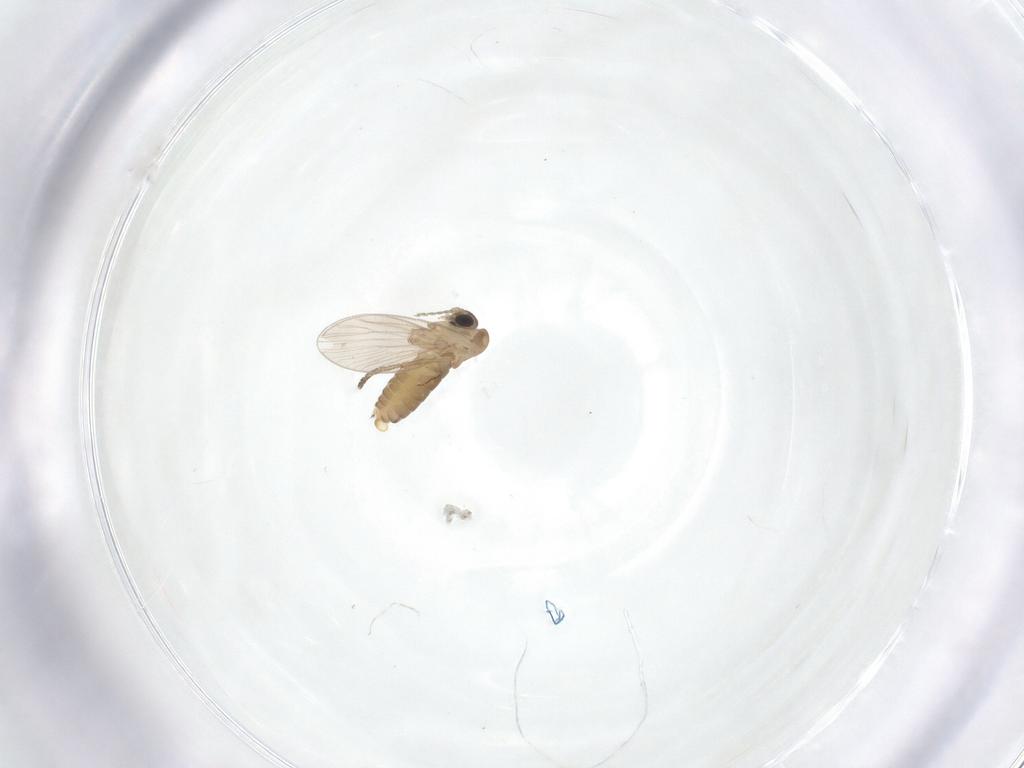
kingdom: Animalia
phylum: Arthropoda
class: Insecta
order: Diptera
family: Psychodidae
